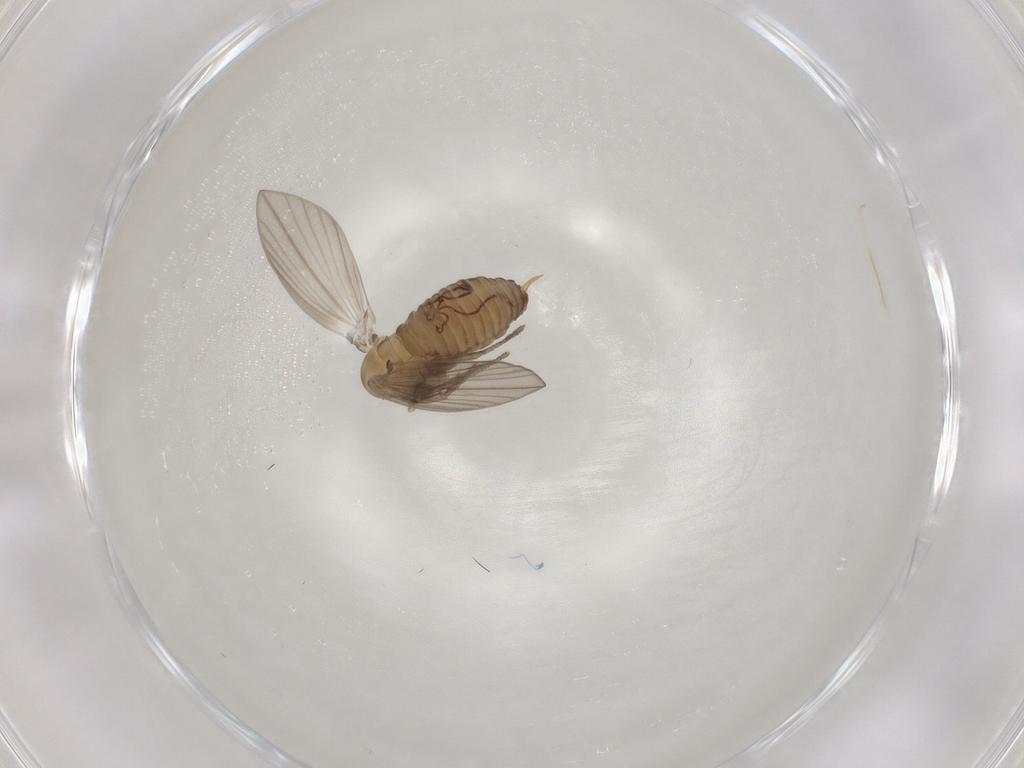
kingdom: Animalia
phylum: Arthropoda
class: Insecta
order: Diptera
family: Psychodidae
